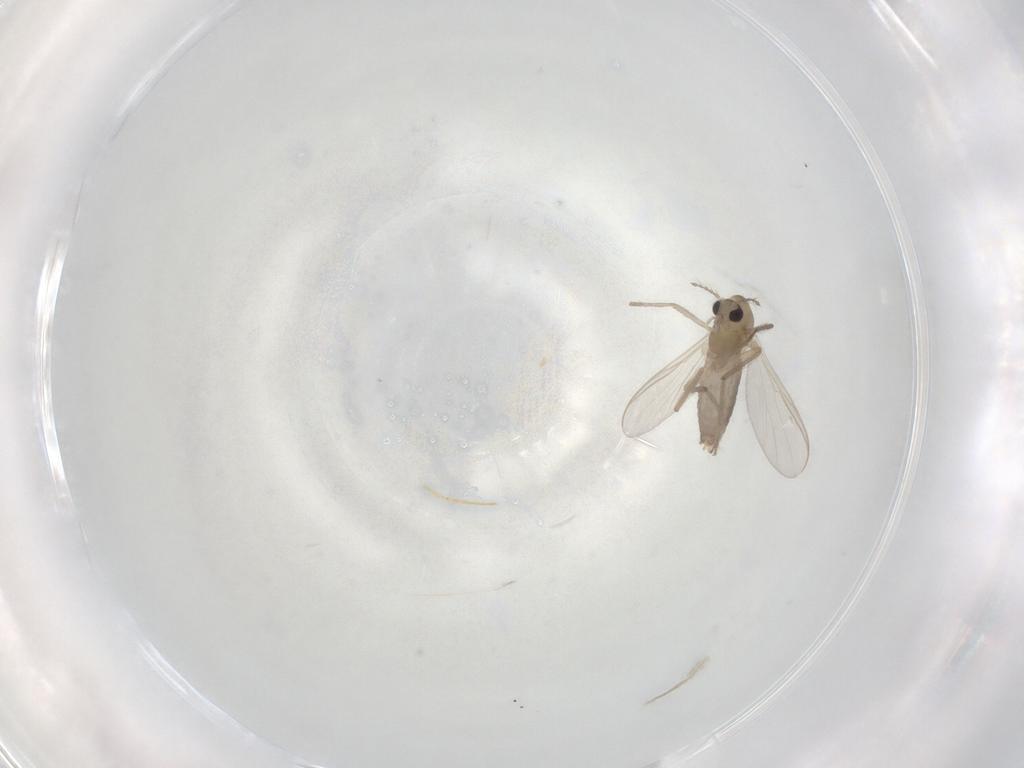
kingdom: Animalia
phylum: Arthropoda
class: Insecta
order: Diptera
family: Chironomidae
